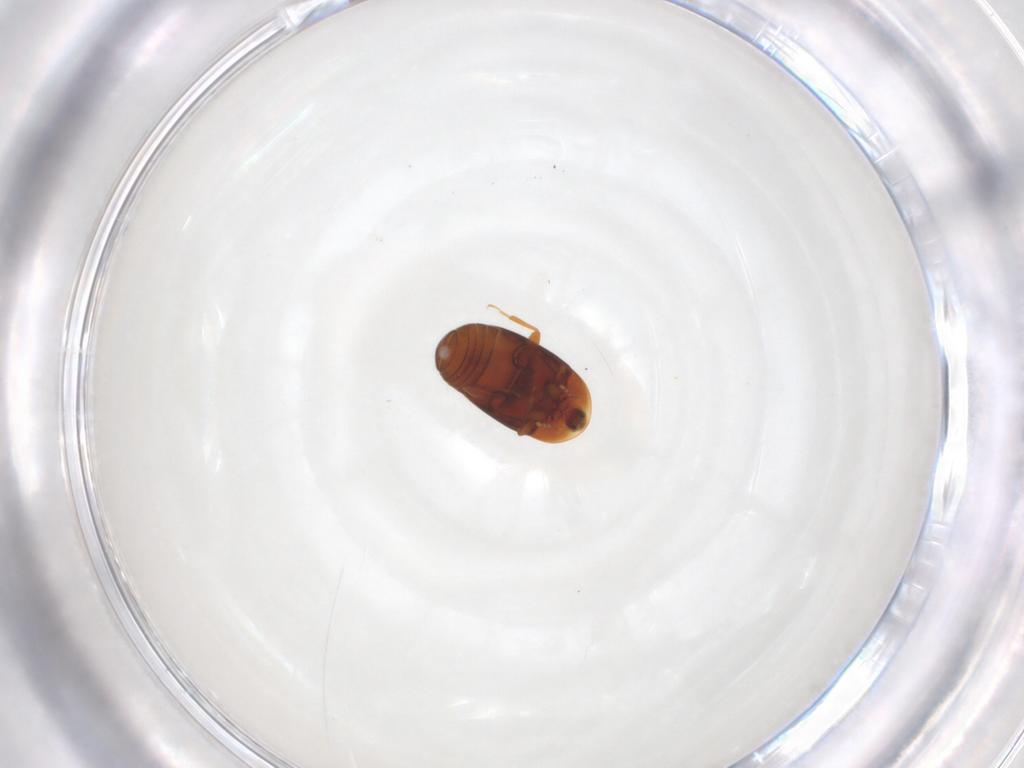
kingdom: Animalia
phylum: Arthropoda
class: Insecta
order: Coleoptera
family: Corylophidae
